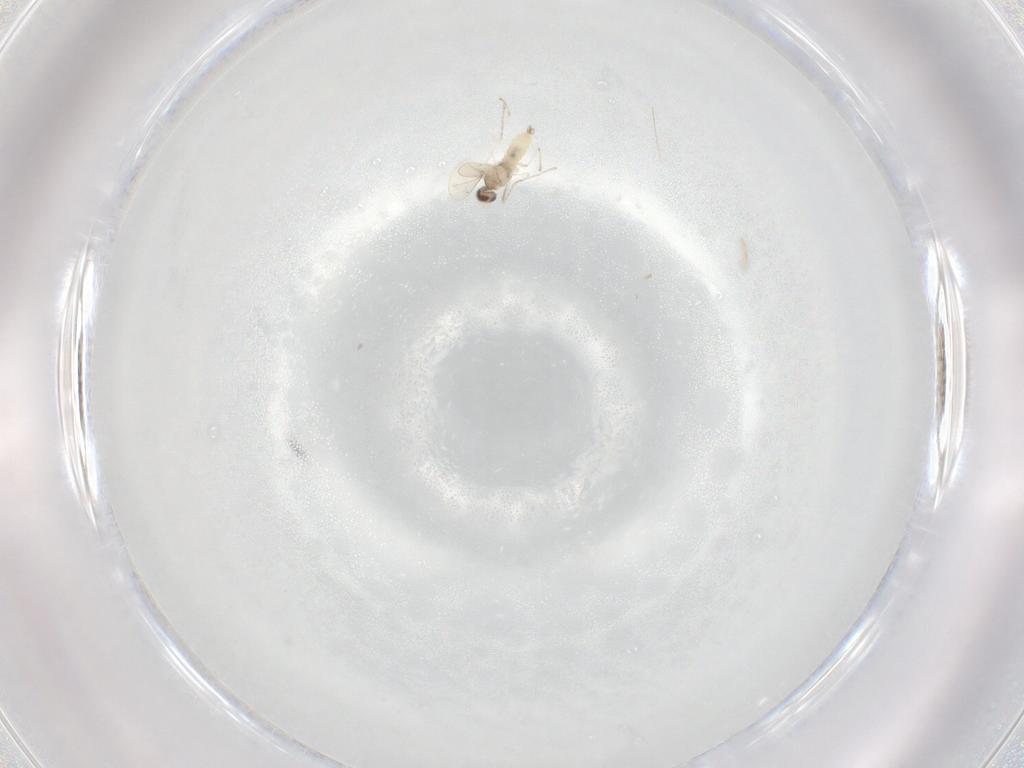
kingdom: Animalia
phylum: Arthropoda
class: Insecta
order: Diptera
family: Cecidomyiidae
